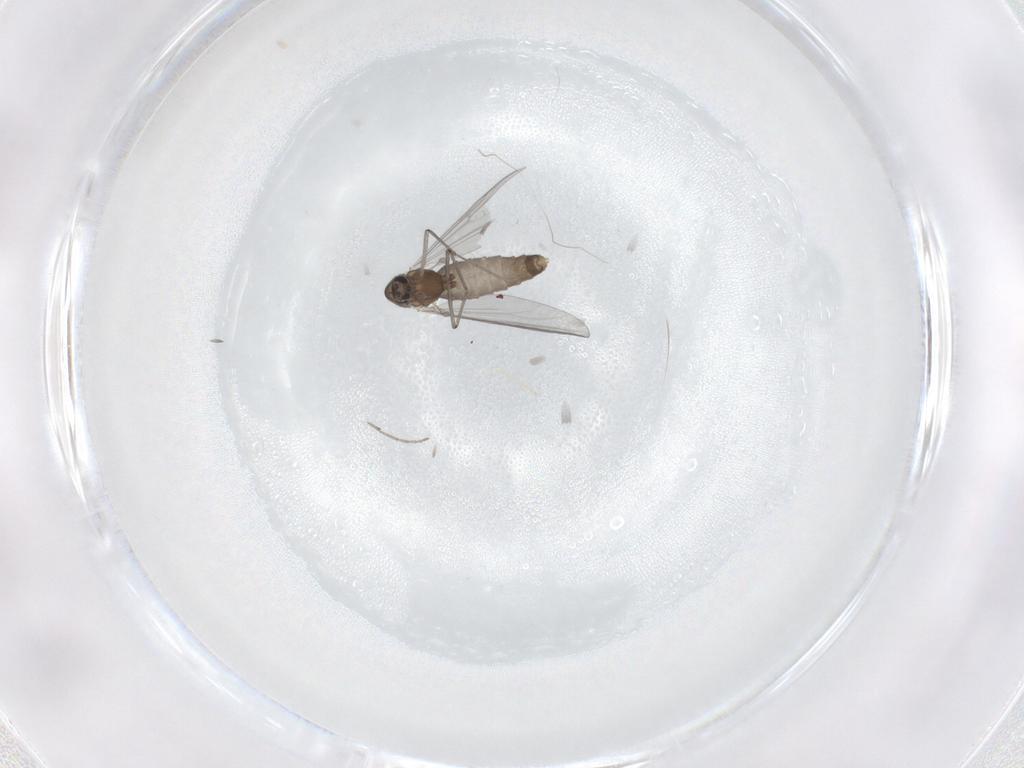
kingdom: Animalia
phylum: Arthropoda
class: Insecta
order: Diptera
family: Chironomidae
